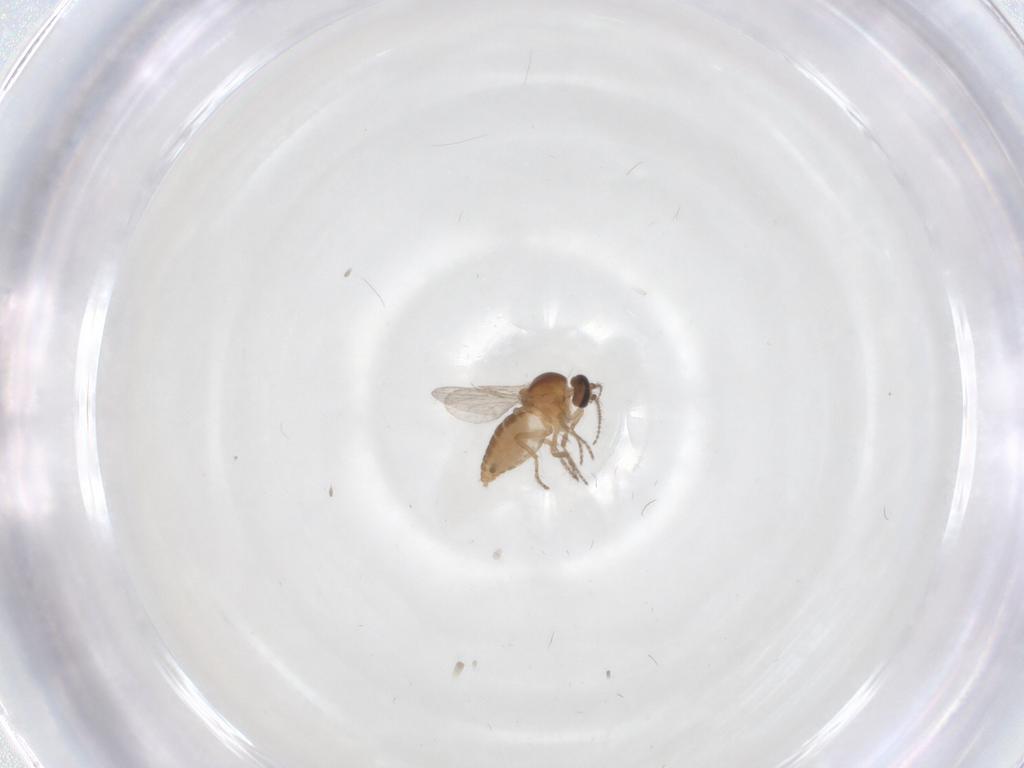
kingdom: Animalia
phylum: Arthropoda
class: Insecta
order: Diptera
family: Ceratopogonidae
